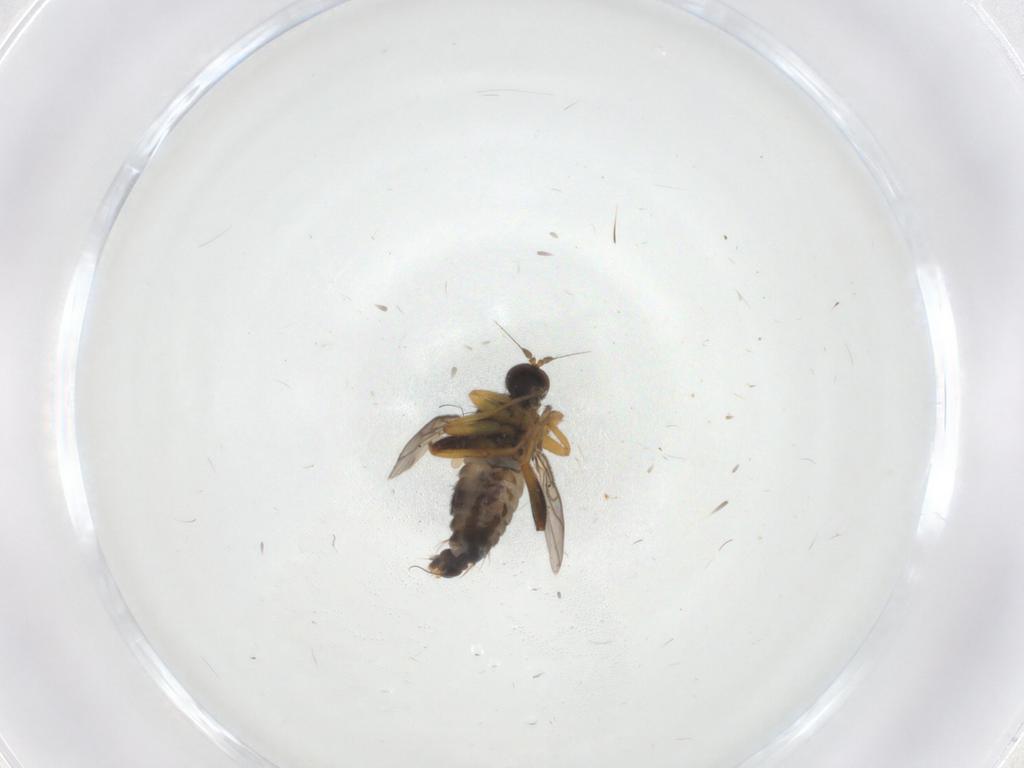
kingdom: Animalia
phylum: Arthropoda
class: Insecta
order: Diptera
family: Hybotidae
